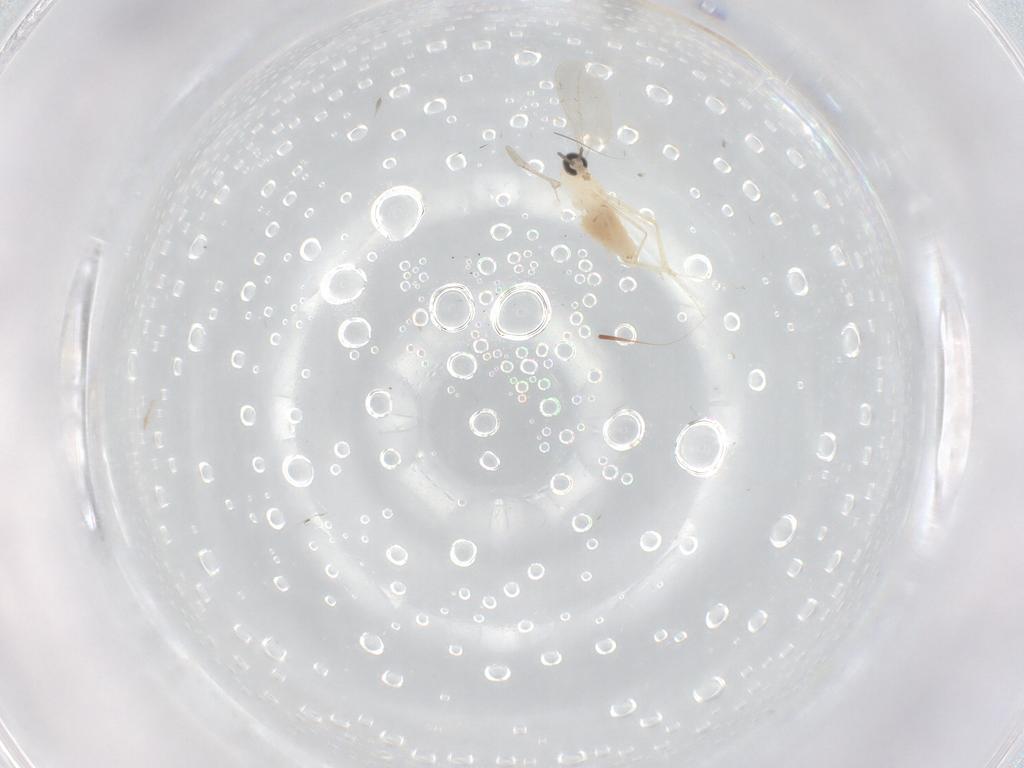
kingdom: Animalia
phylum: Arthropoda
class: Insecta
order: Diptera
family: Cecidomyiidae
